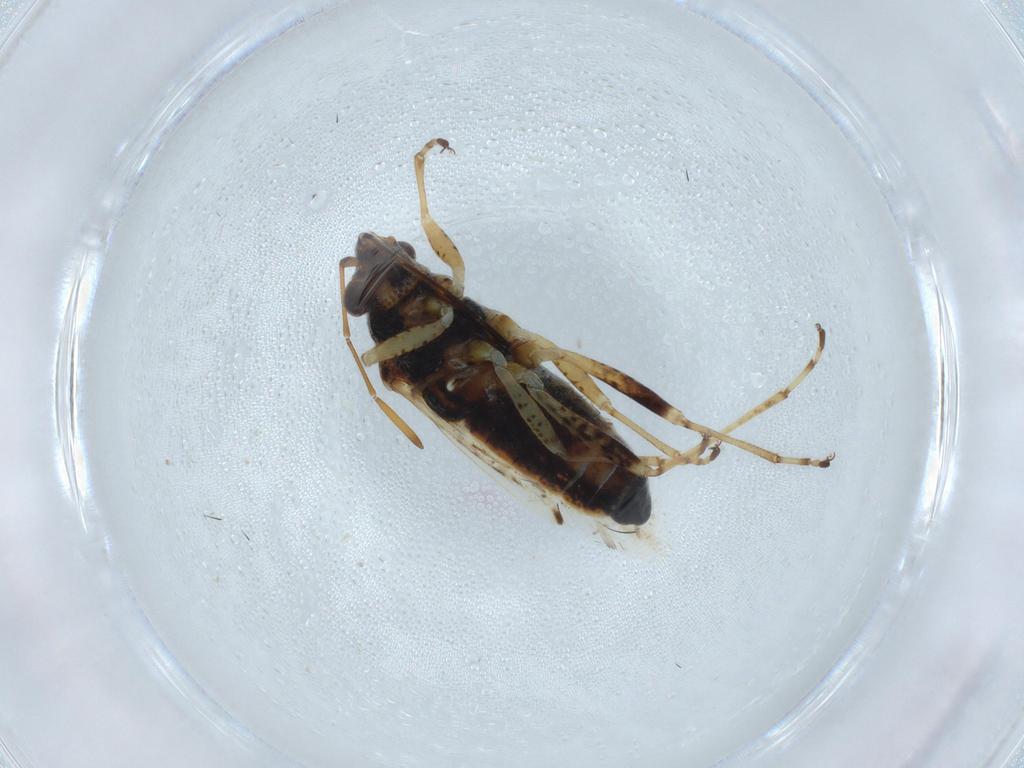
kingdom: Animalia
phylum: Arthropoda
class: Insecta
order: Hemiptera
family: Lygaeidae
